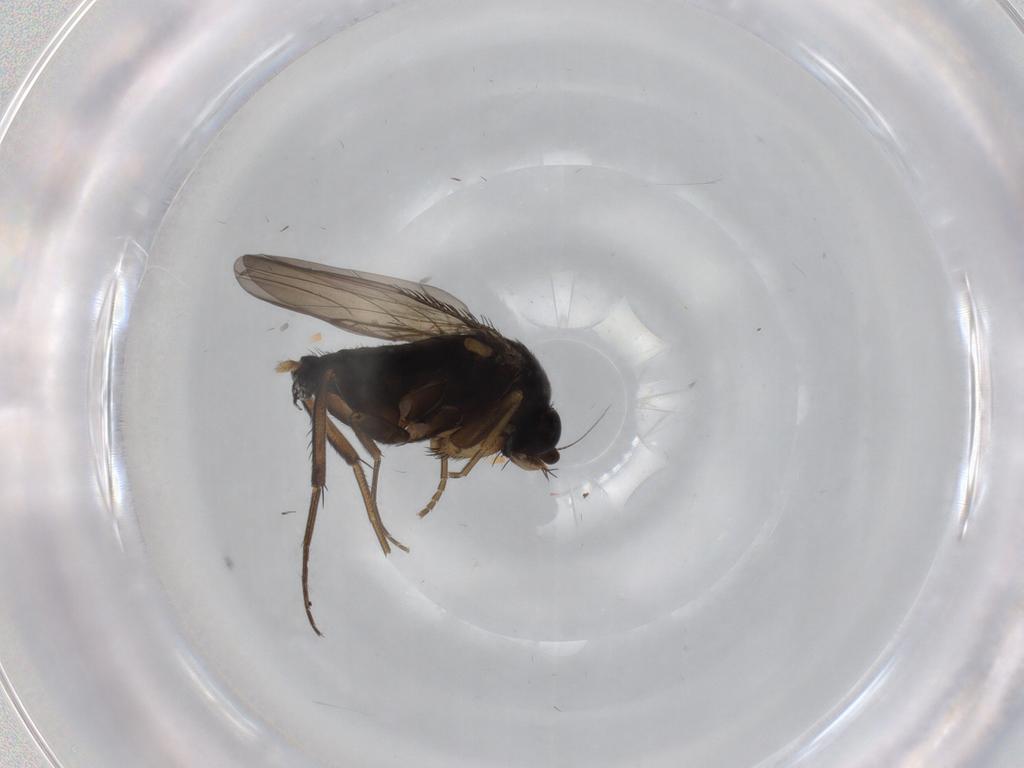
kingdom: Animalia
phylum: Arthropoda
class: Insecta
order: Diptera
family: Phoridae
